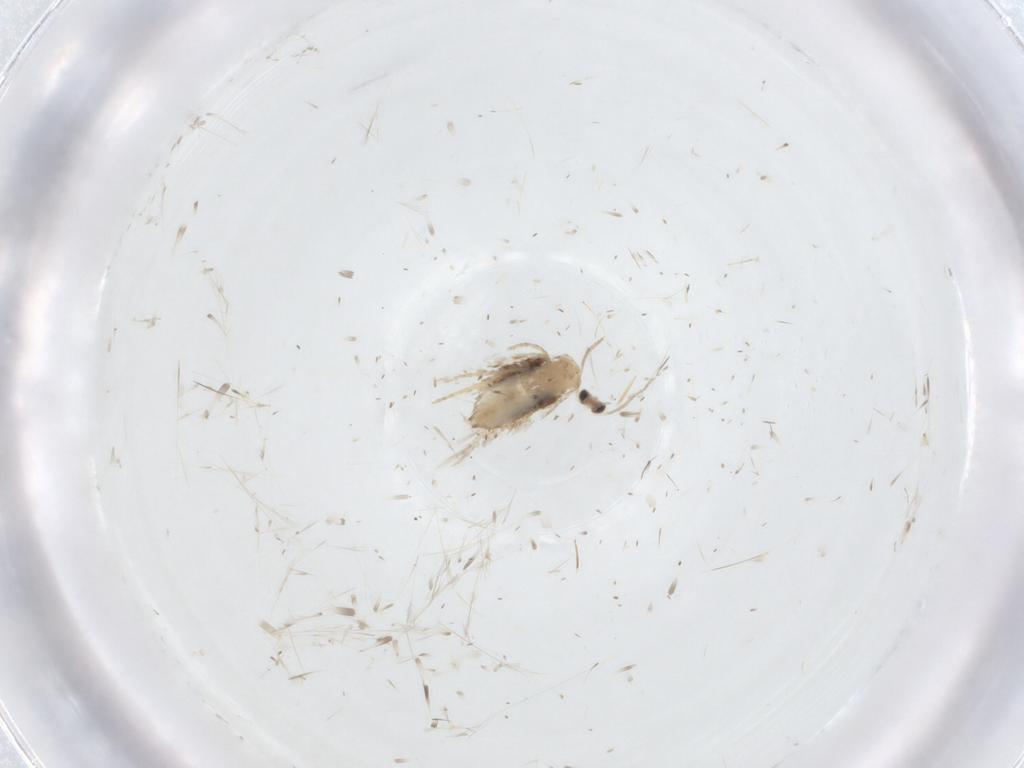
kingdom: Animalia
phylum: Arthropoda
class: Insecta
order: Lepidoptera
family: Nepticulidae
